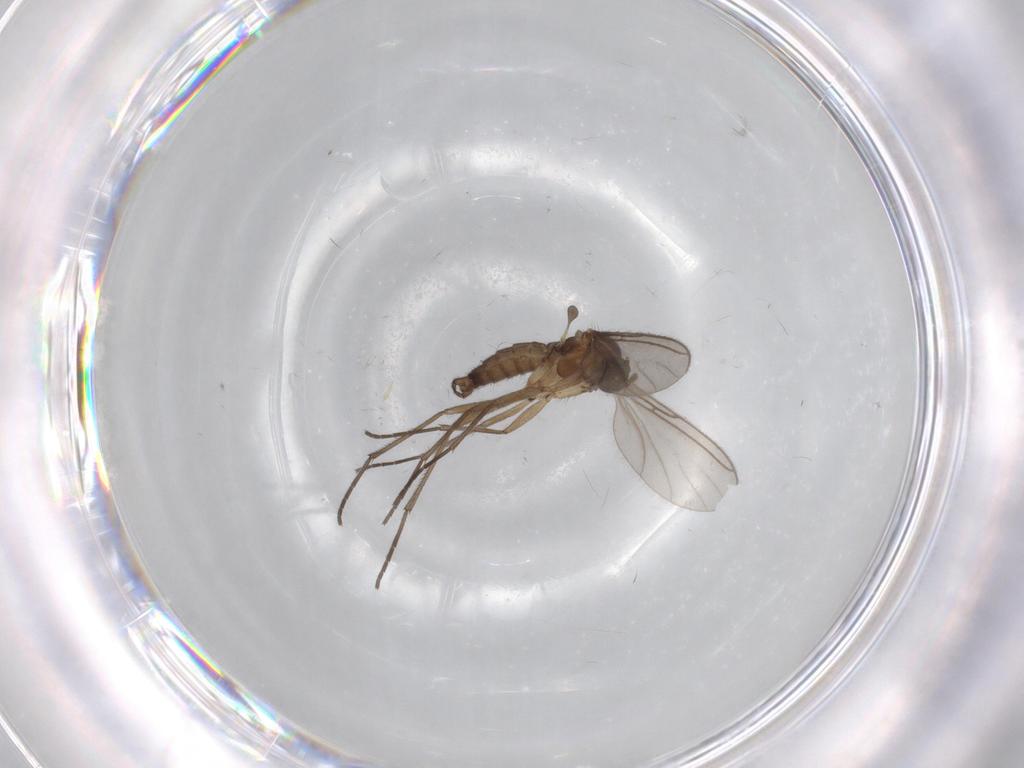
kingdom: Animalia
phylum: Arthropoda
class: Insecta
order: Diptera
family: Sciaridae
